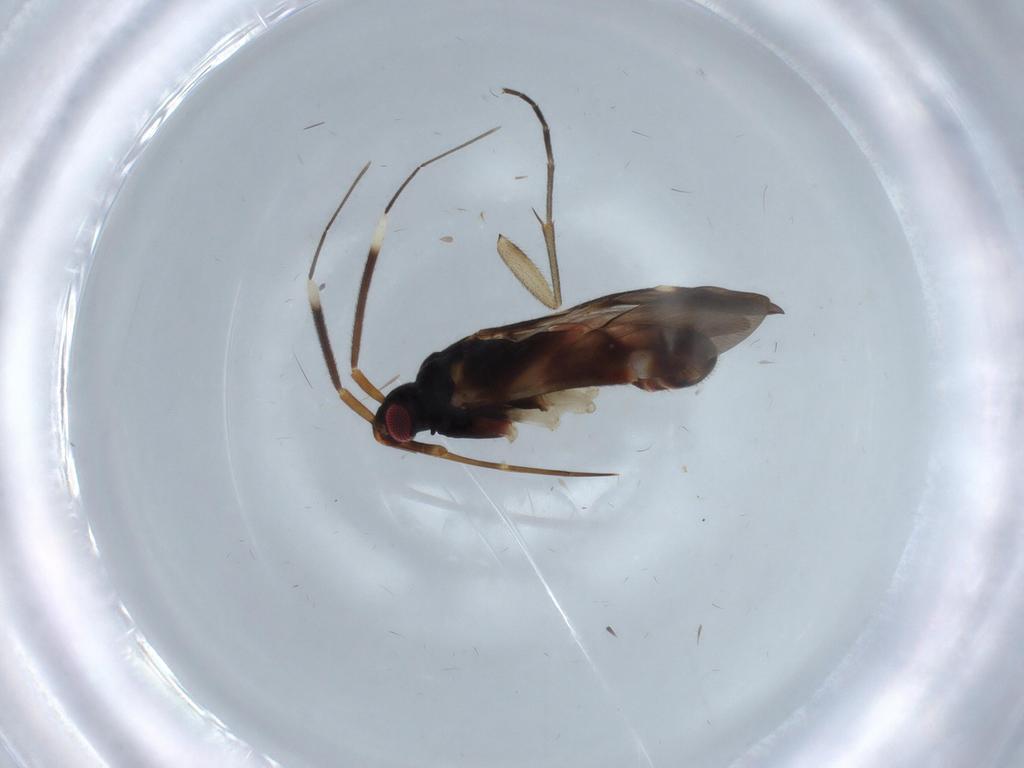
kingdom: Animalia
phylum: Arthropoda
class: Insecta
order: Hemiptera
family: Miridae
